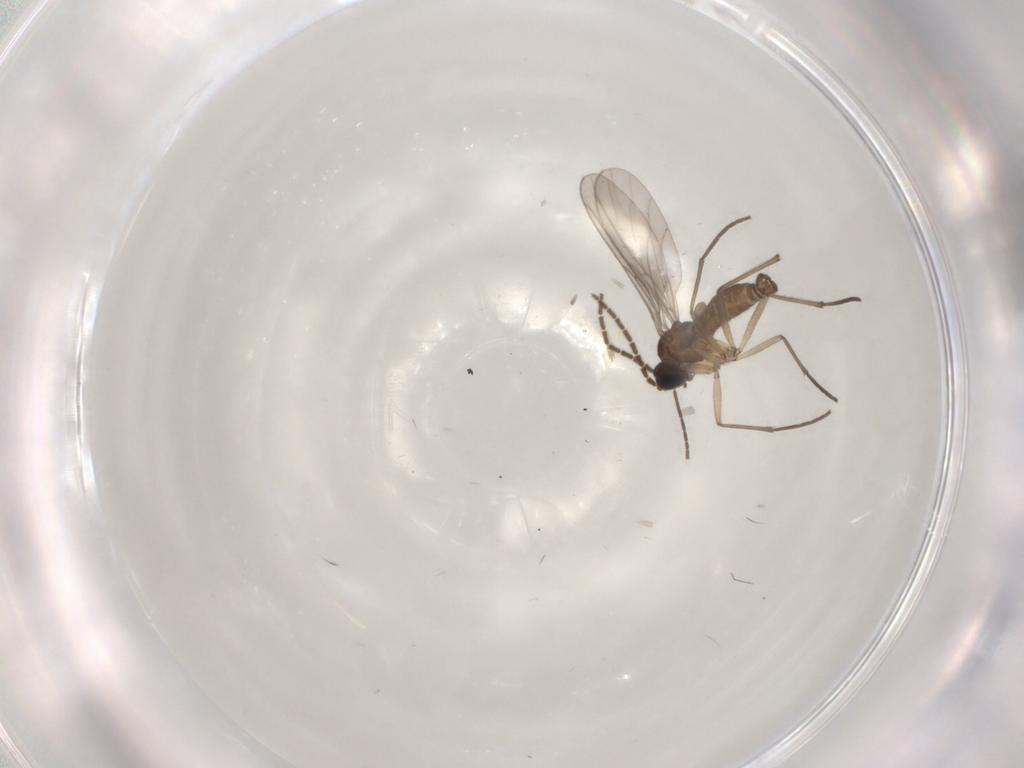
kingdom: Animalia
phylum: Arthropoda
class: Insecta
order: Diptera
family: Sciaridae
